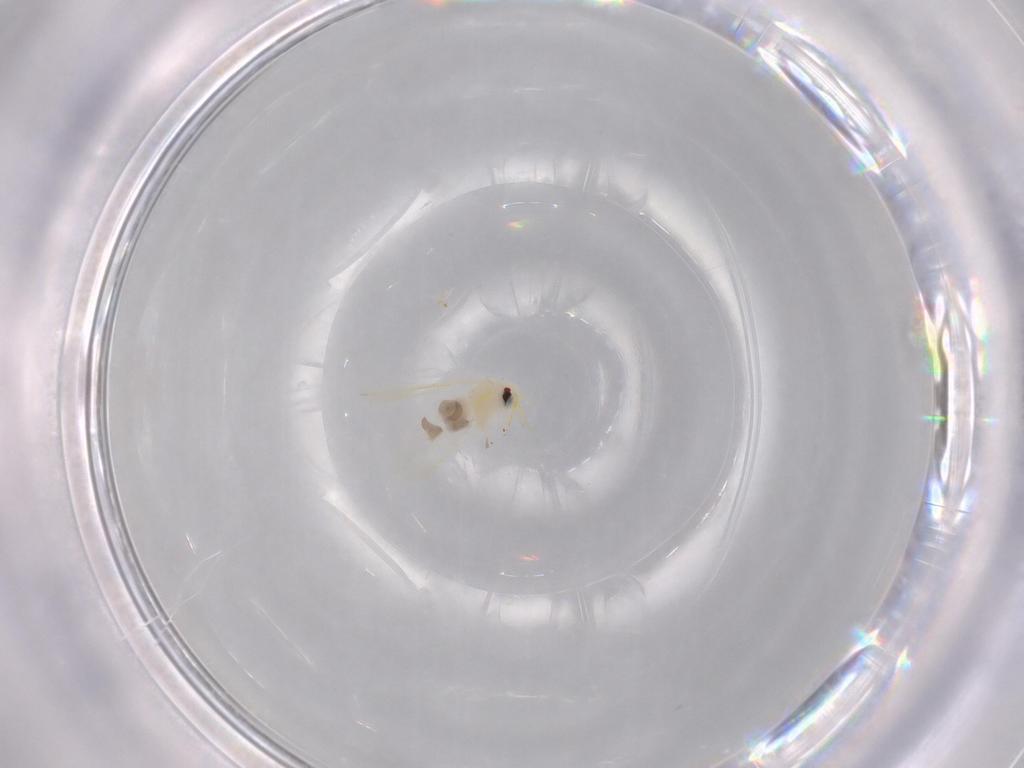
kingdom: Animalia
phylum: Arthropoda
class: Insecta
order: Hemiptera
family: Aleyrodidae
